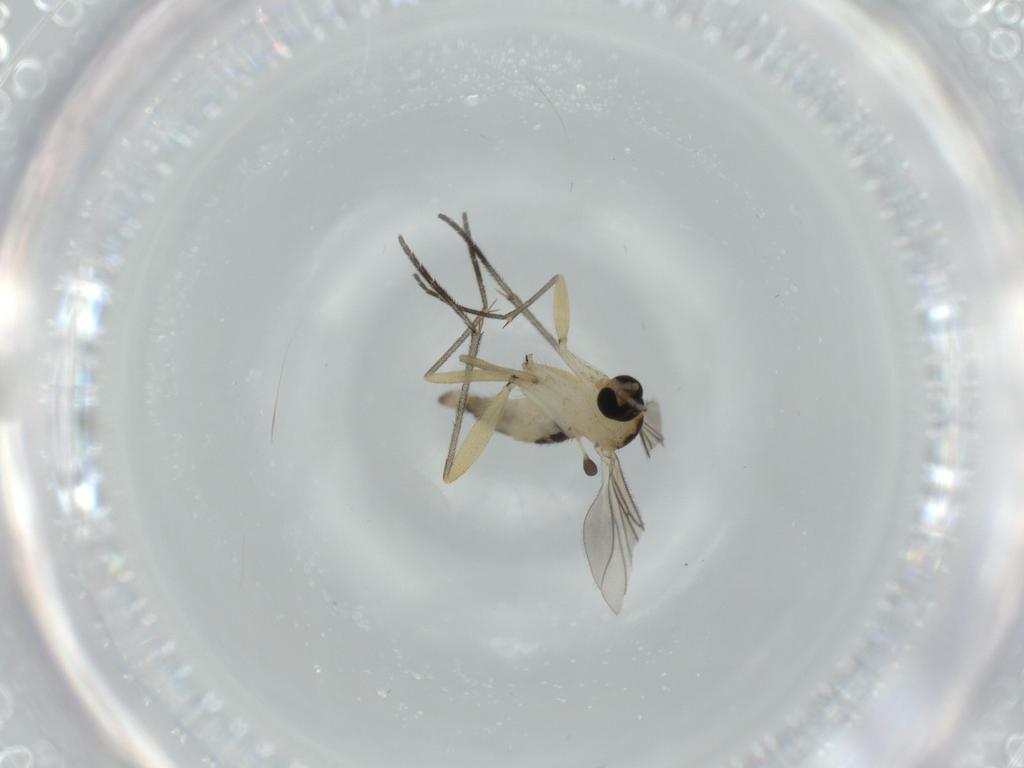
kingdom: Animalia
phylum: Arthropoda
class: Insecta
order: Diptera
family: Sciaridae
